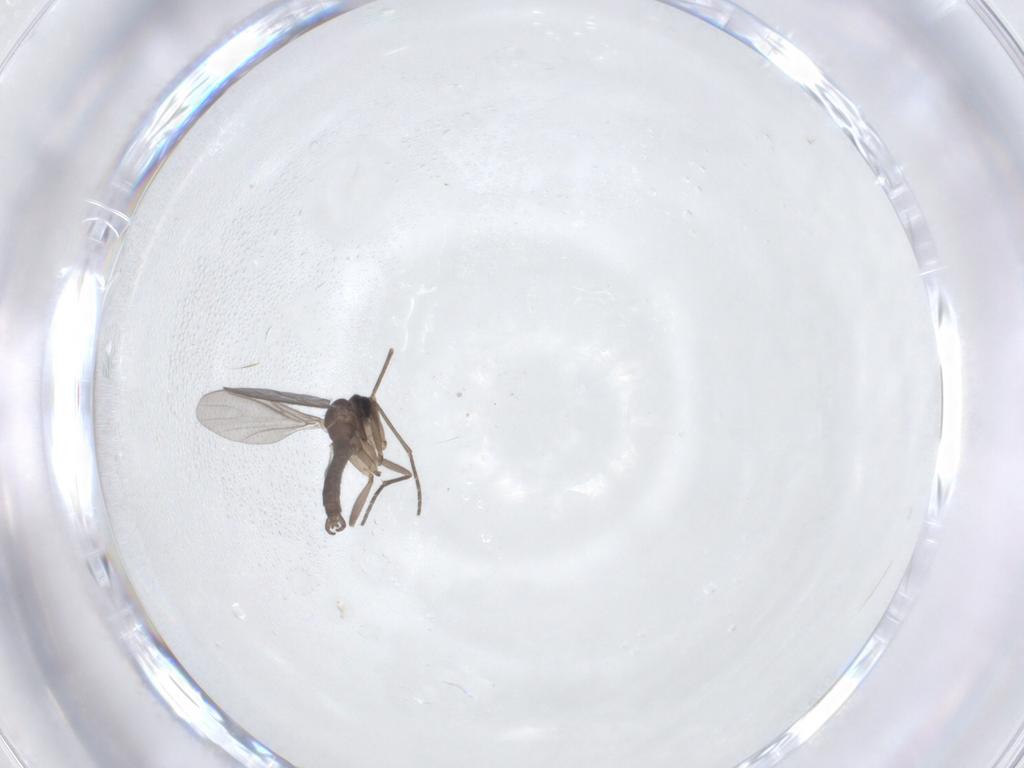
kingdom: Animalia
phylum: Arthropoda
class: Insecta
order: Diptera
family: Sciaridae
